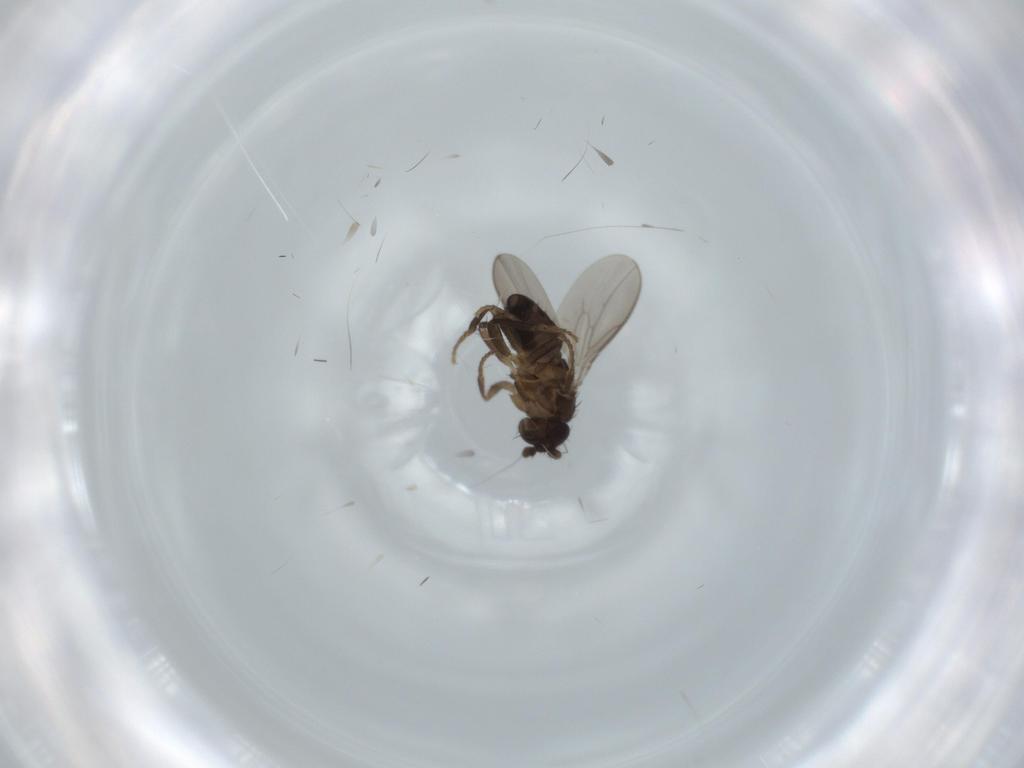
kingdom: Animalia
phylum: Arthropoda
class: Insecta
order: Diptera
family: Sphaeroceridae
